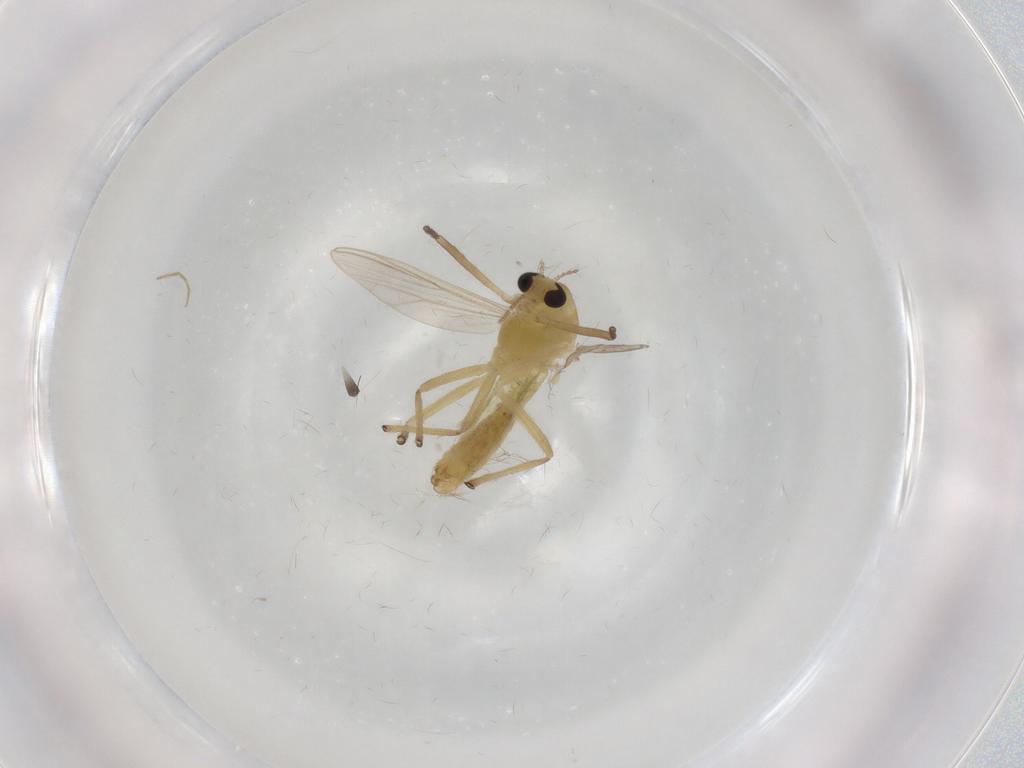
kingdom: Animalia
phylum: Arthropoda
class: Insecta
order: Diptera
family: Chironomidae
